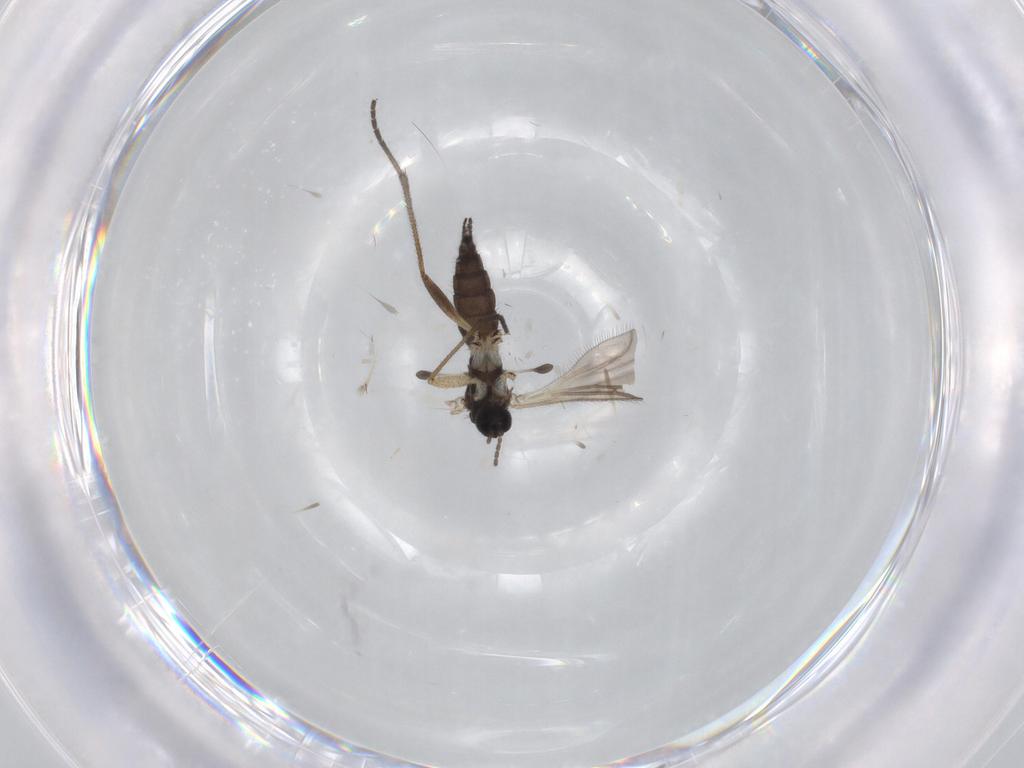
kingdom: Animalia
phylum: Arthropoda
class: Insecta
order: Diptera
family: Sciaridae
